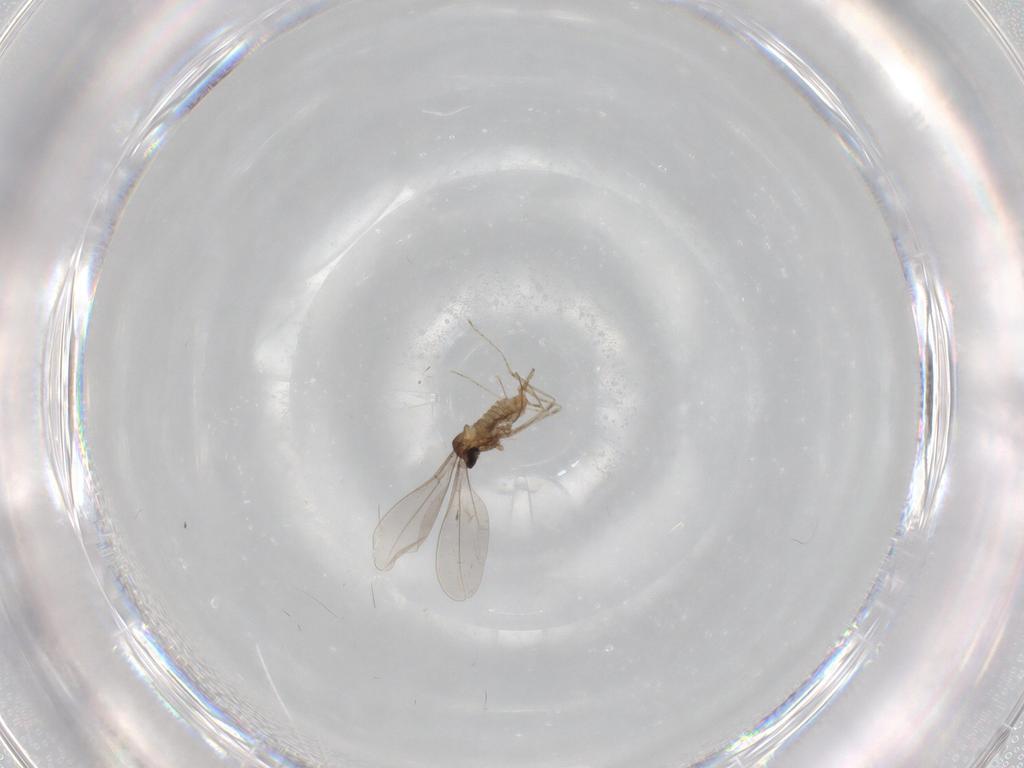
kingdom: Animalia
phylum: Arthropoda
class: Insecta
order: Diptera
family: Cecidomyiidae
